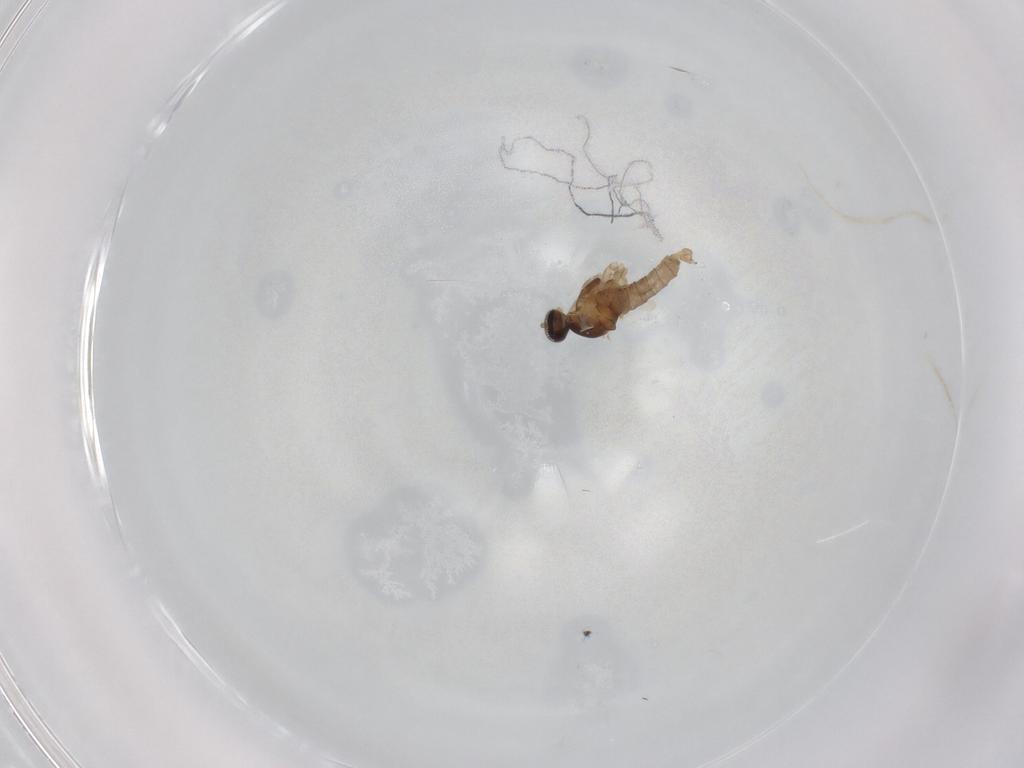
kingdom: Animalia
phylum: Arthropoda
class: Insecta
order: Diptera
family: Cecidomyiidae
